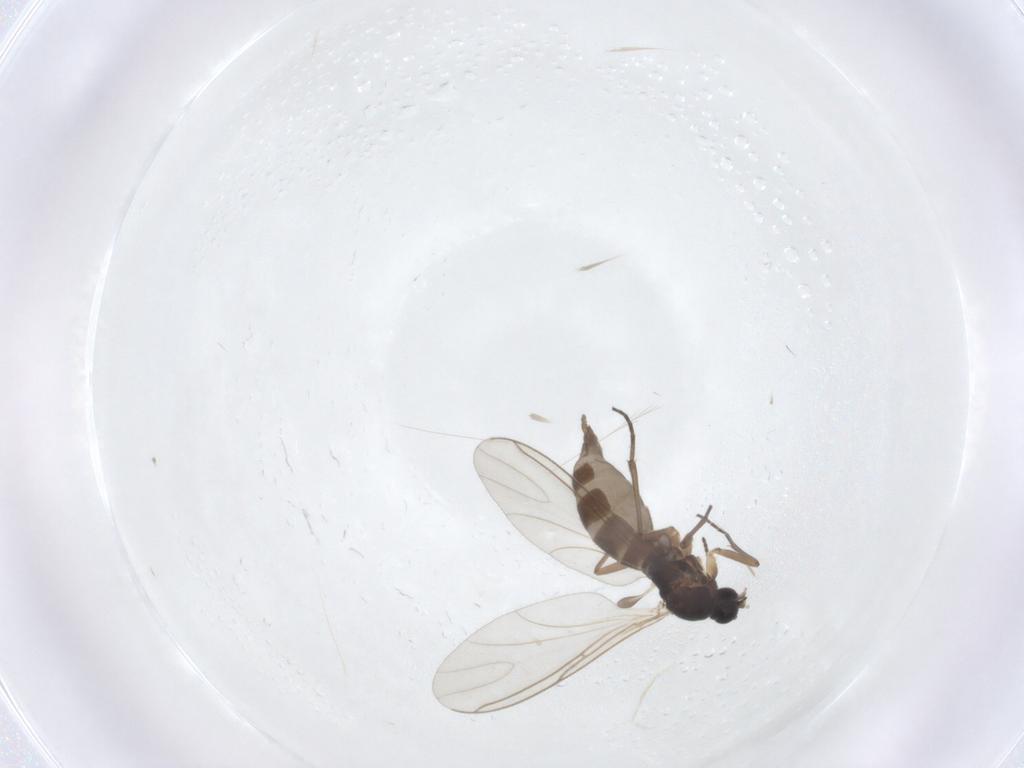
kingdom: Animalia
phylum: Arthropoda
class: Insecta
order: Diptera
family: Sciaridae
